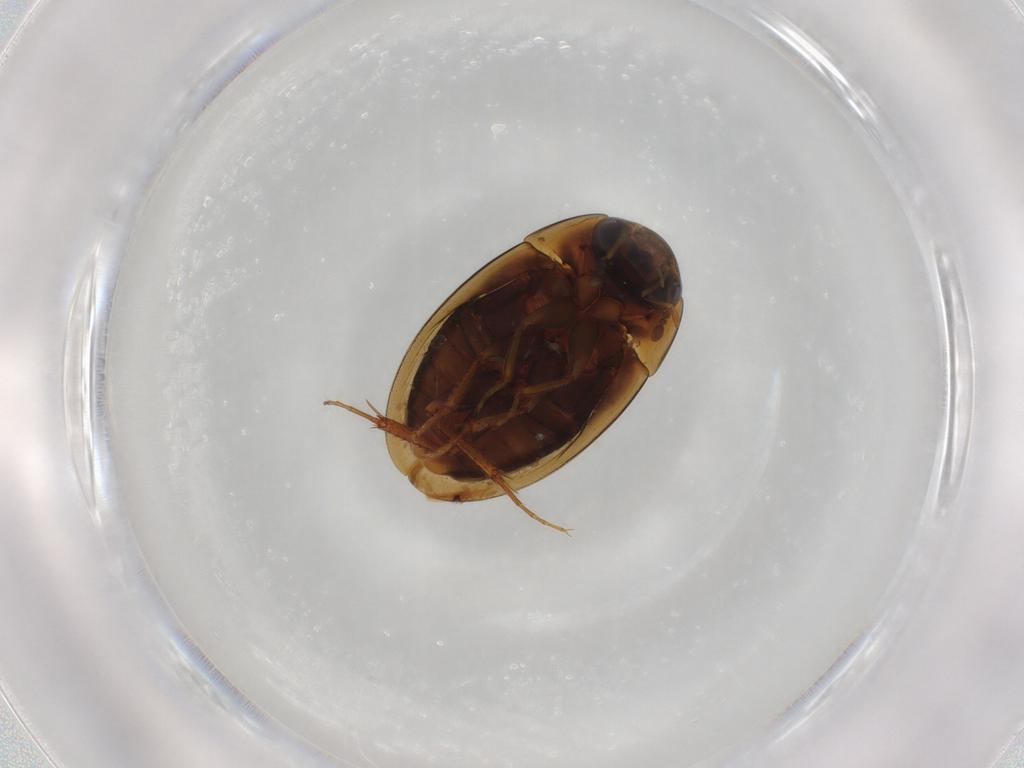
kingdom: Animalia
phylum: Arthropoda
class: Insecta
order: Coleoptera
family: Hydrophilidae
